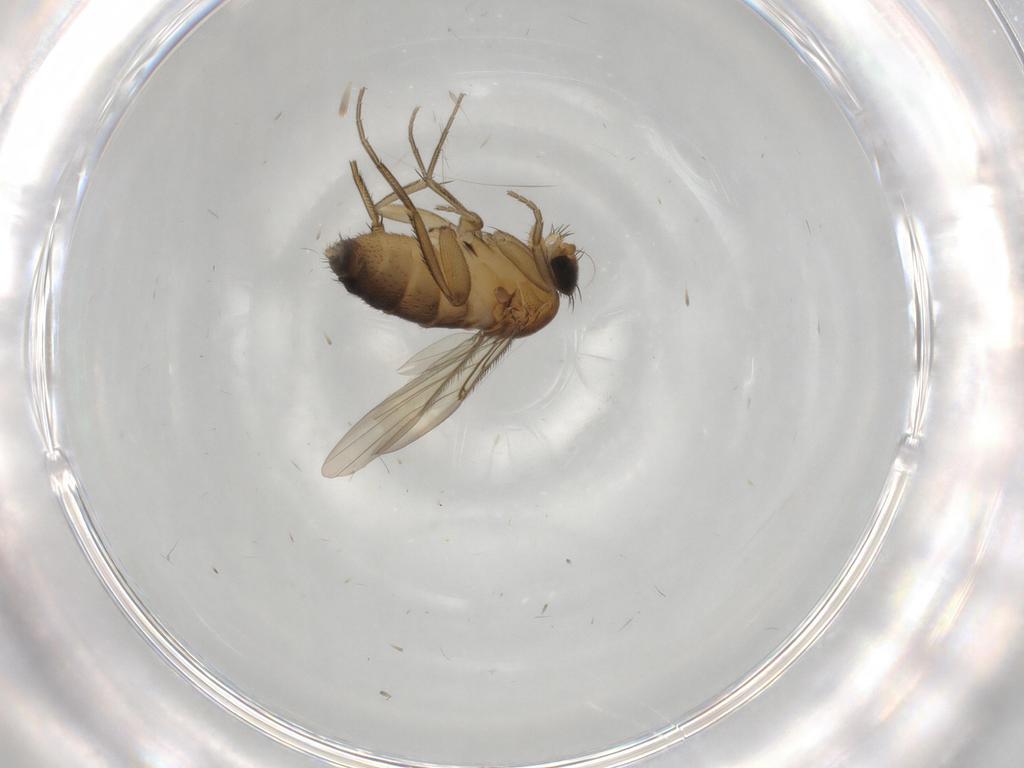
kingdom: Animalia
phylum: Arthropoda
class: Insecta
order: Diptera
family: Phoridae
